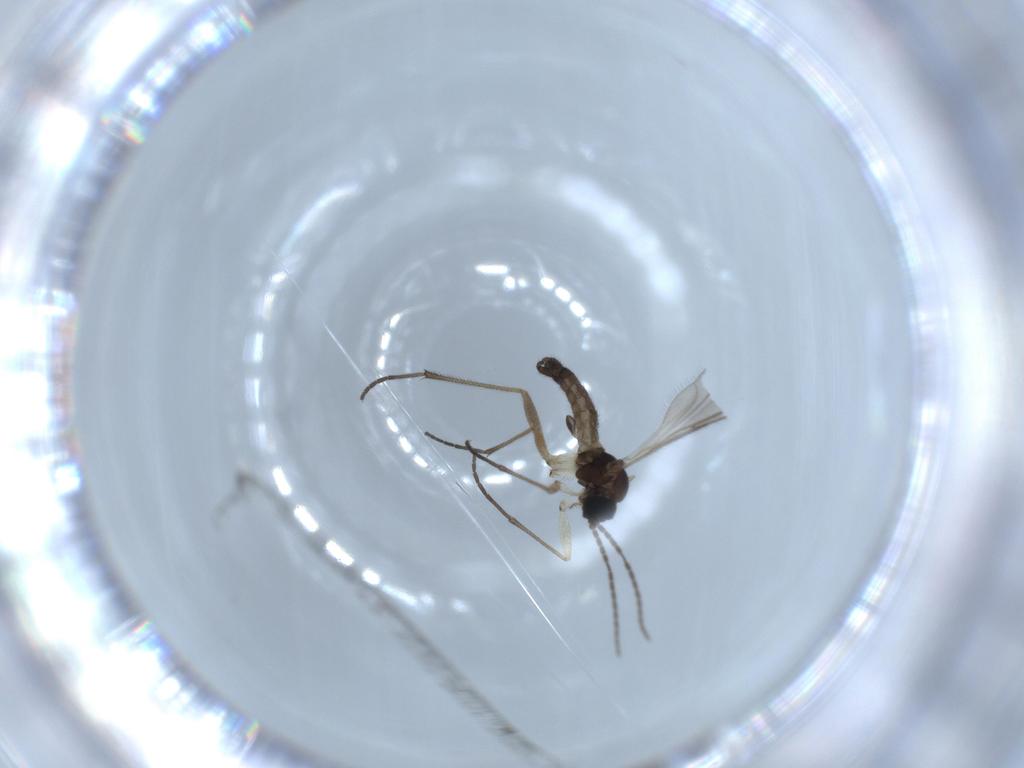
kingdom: Animalia
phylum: Arthropoda
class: Insecta
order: Diptera
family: Sciaridae
